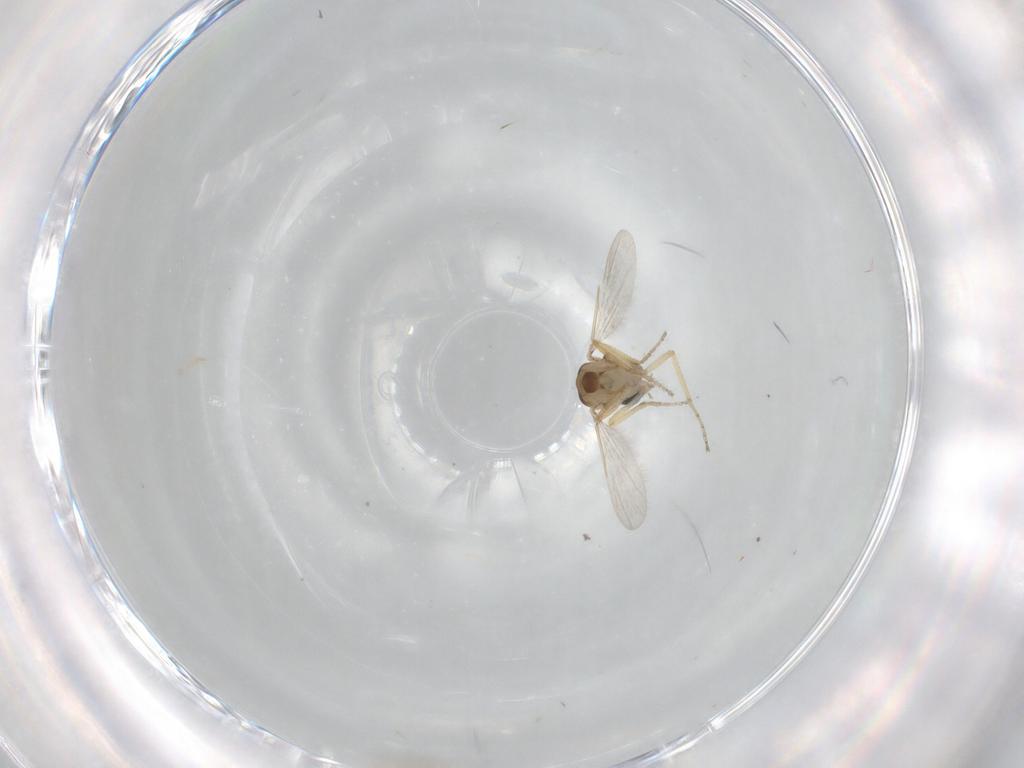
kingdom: Animalia
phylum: Arthropoda
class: Insecta
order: Diptera
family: Ceratopogonidae
